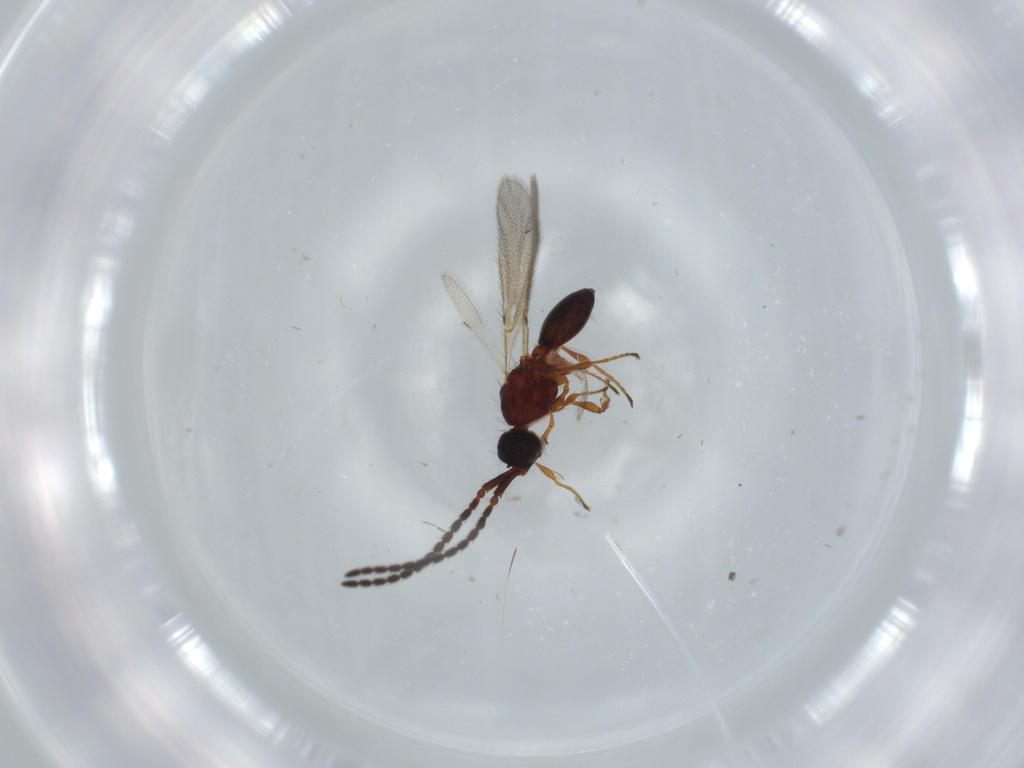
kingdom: Animalia
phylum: Arthropoda
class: Insecta
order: Hymenoptera
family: Diapriidae
